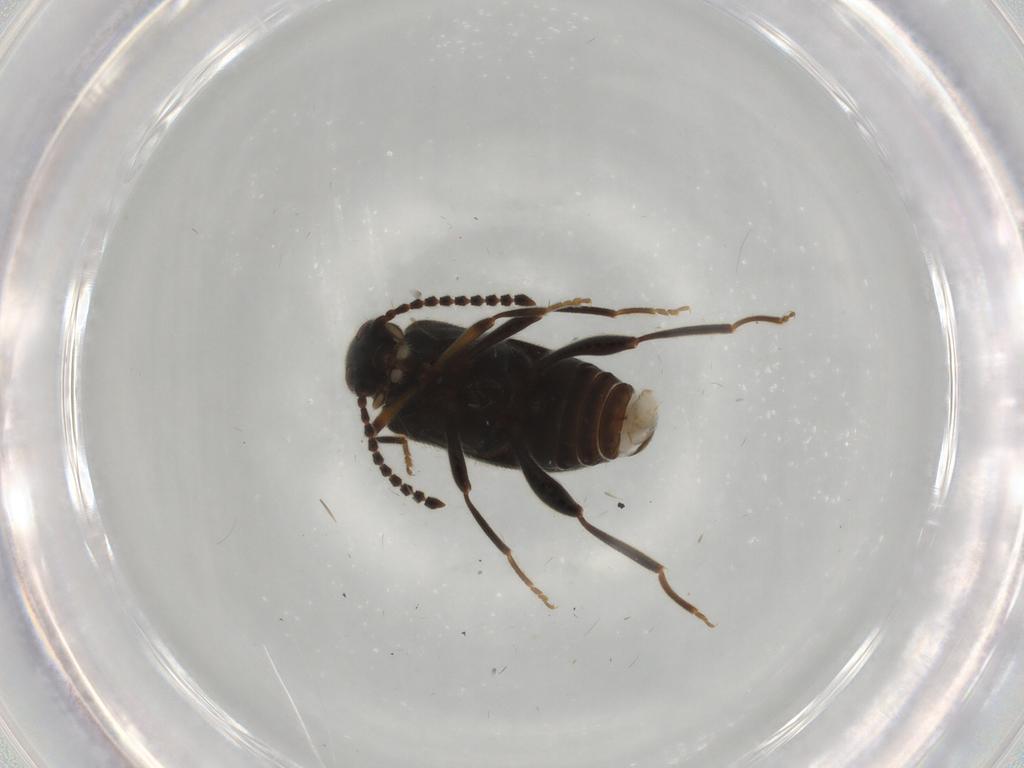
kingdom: Animalia
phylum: Arthropoda
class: Insecta
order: Coleoptera
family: Aderidae
